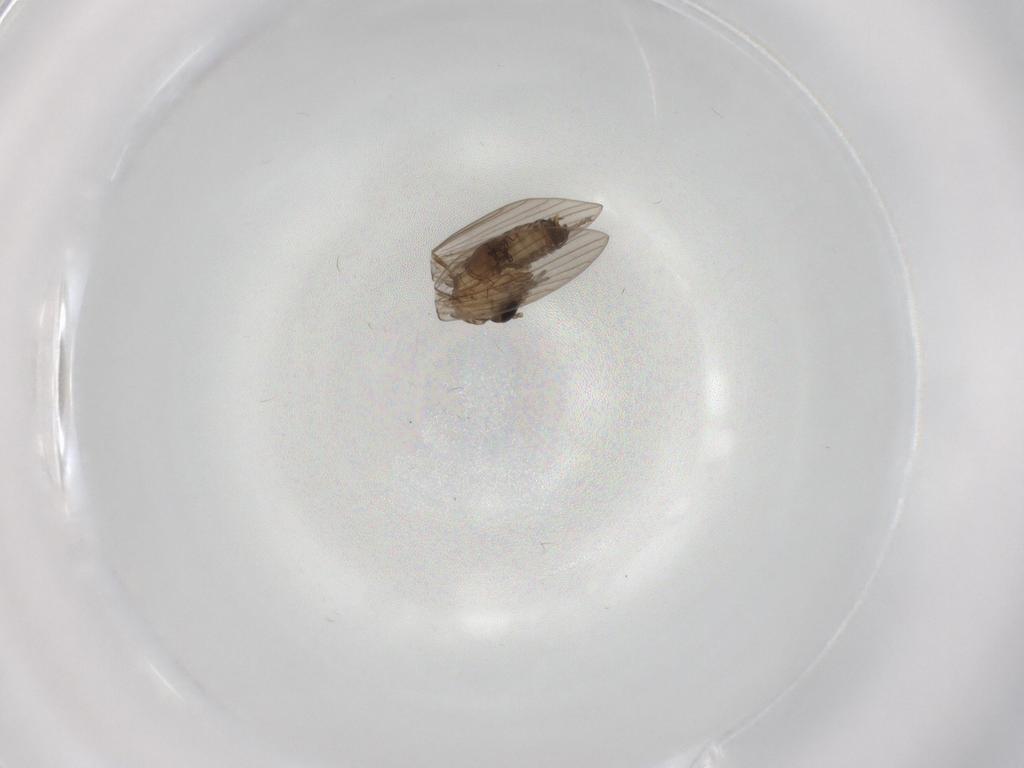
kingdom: Animalia
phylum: Arthropoda
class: Insecta
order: Diptera
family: Psychodidae
